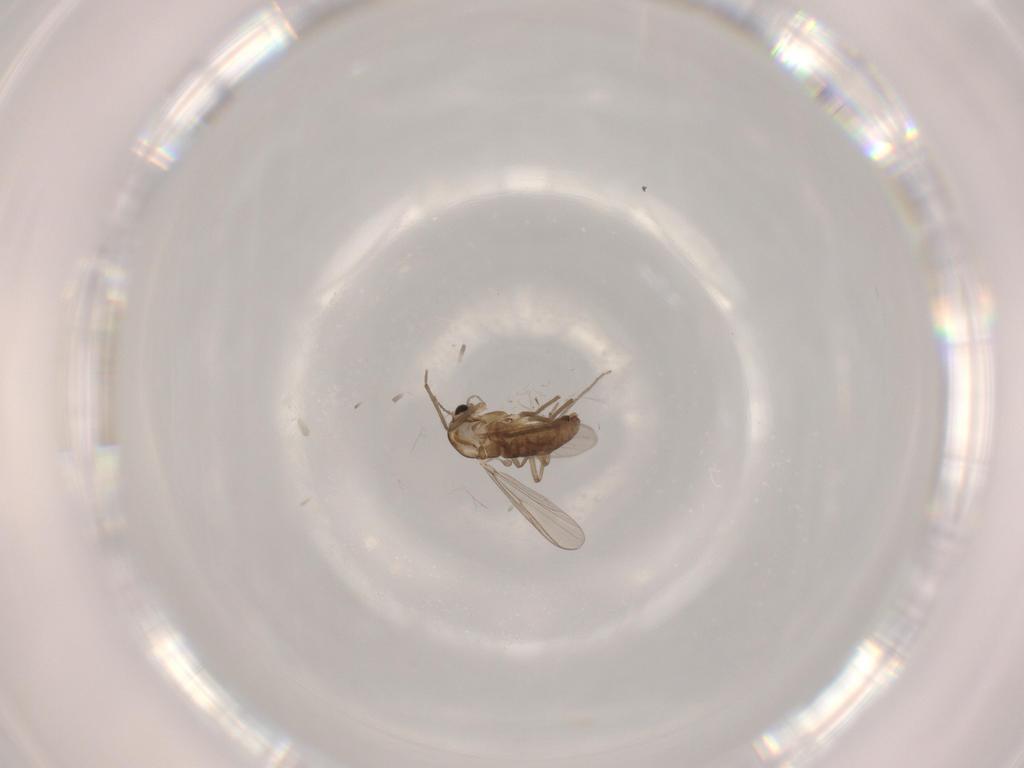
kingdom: Animalia
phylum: Arthropoda
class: Insecta
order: Diptera
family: Chironomidae
